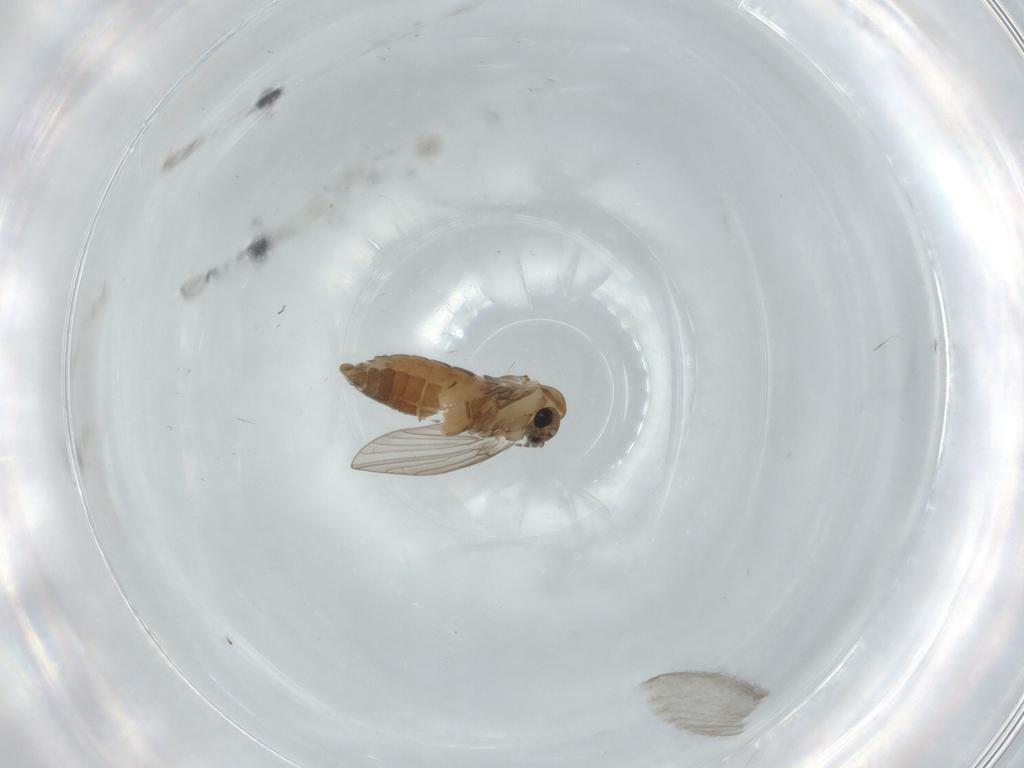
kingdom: Animalia
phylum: Arthropoda
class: Insecta
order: Diptera
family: Psychodidae
